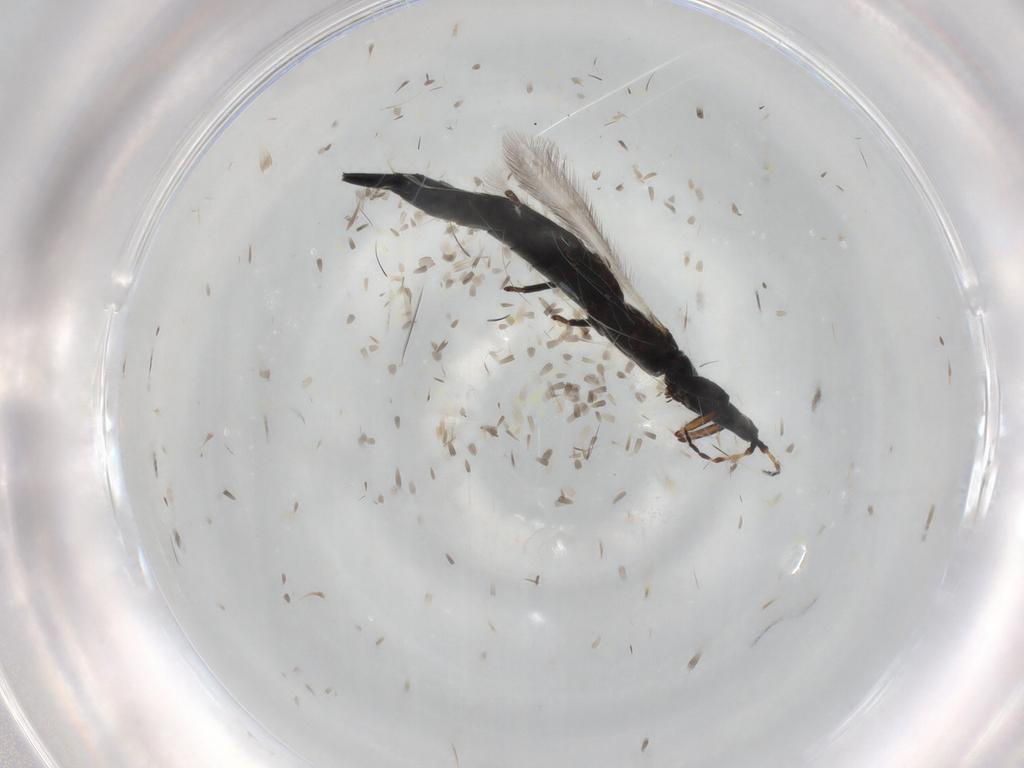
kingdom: Animalia
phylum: Arthropoda
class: Insecta
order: Thysanoptera
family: Phlaeothripidae
